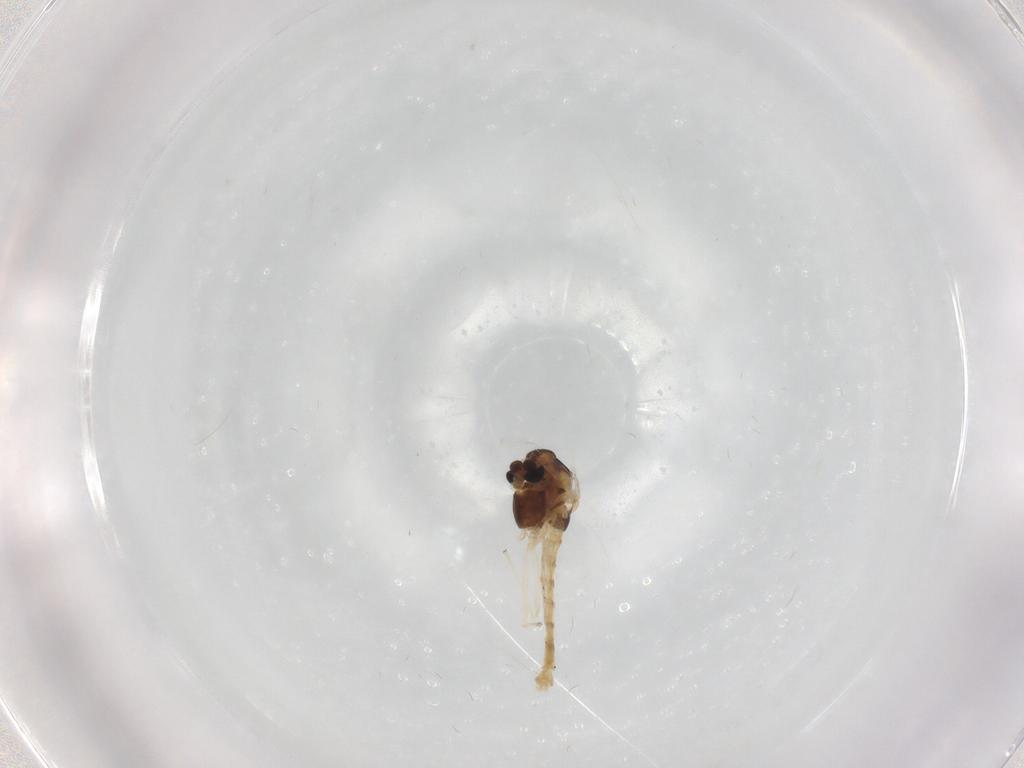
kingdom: Animalia
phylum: Arthropoda
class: Insecta
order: Diptera
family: Chironomidae
